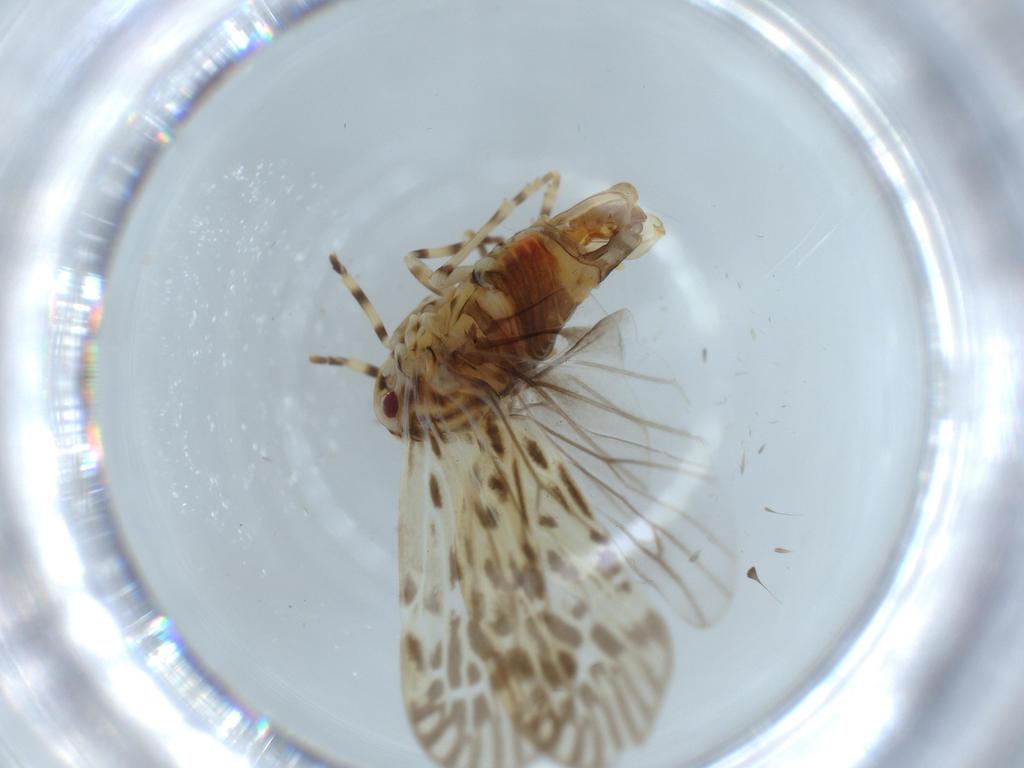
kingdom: Animalia
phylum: Arthropoda
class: Insecta
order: Hemiptera
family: Derbidae
